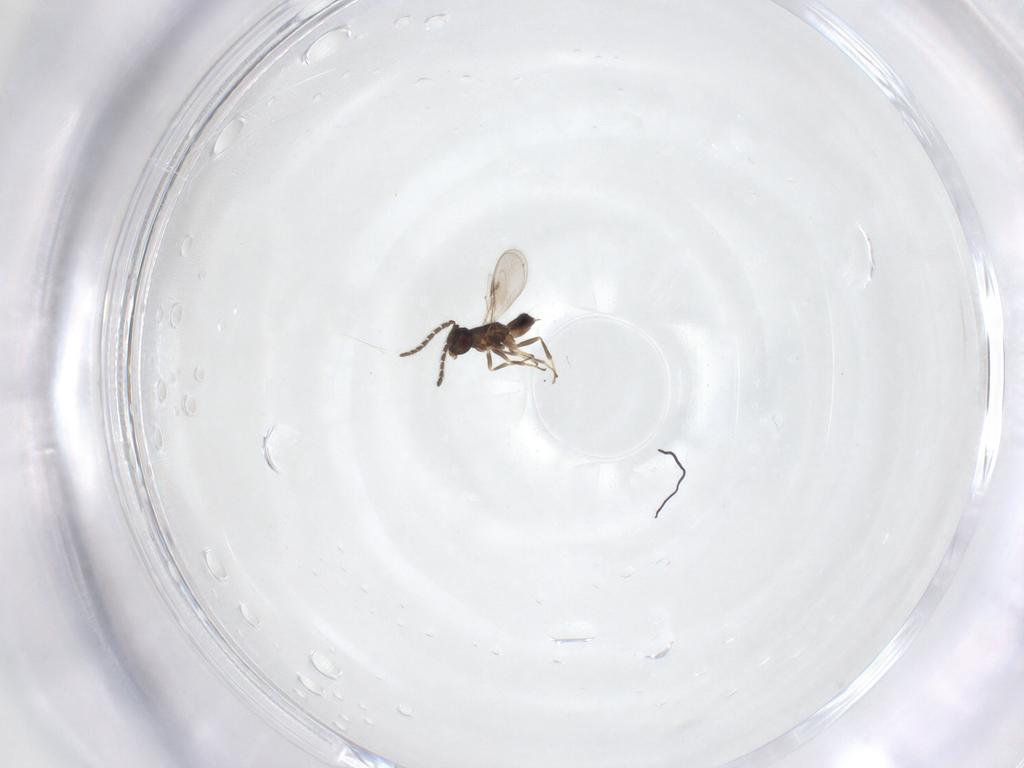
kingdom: Animalia
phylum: Arthropoda
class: Insecta
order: Hymenoptera
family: Encyrtidae
